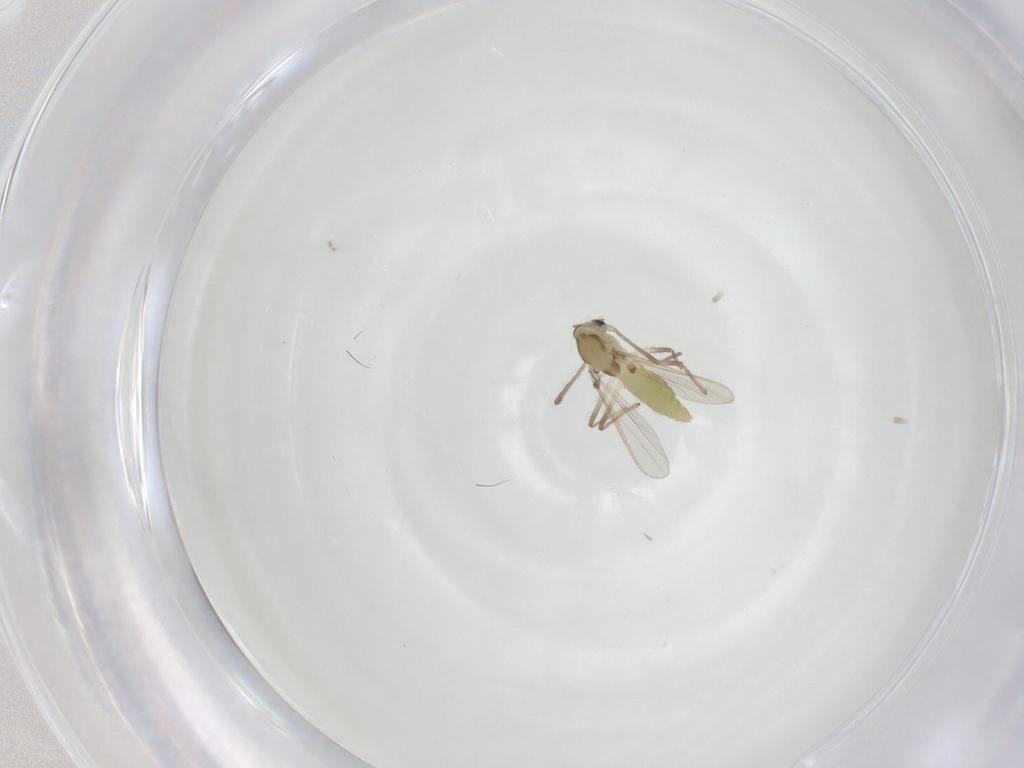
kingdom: Animalia
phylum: Arthropoda
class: Insecta
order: Diptera
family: Chironomidae
